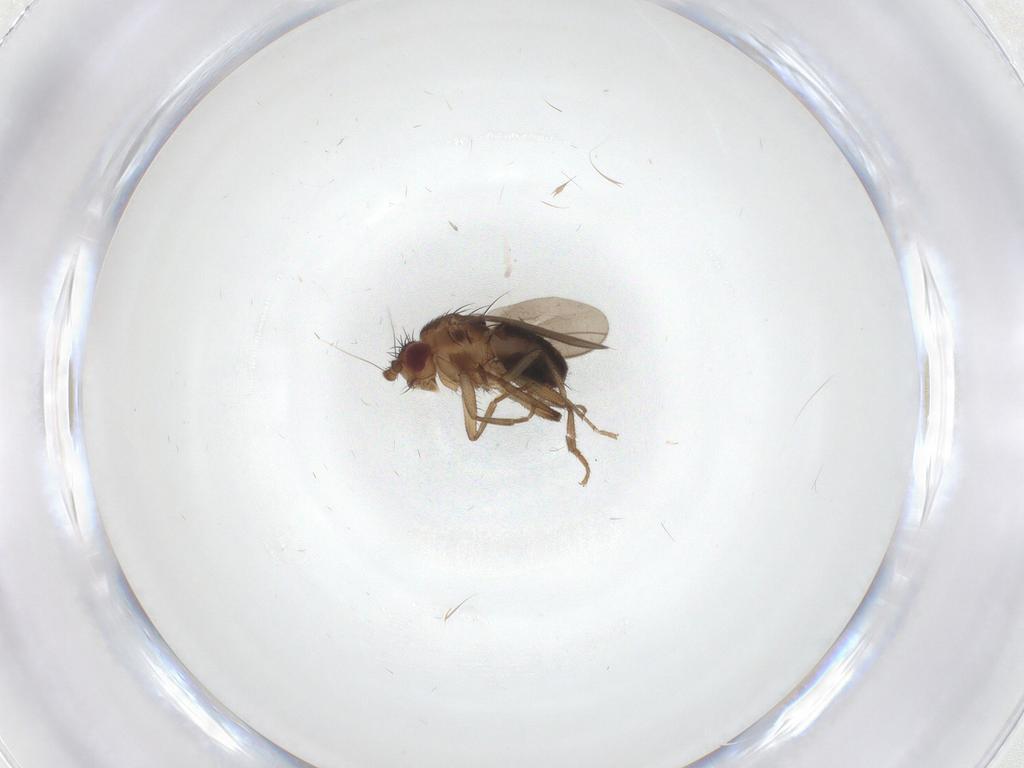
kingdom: Animalia
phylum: Arthropoda
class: Insecta
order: Diptera
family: Sphaeroceridae
